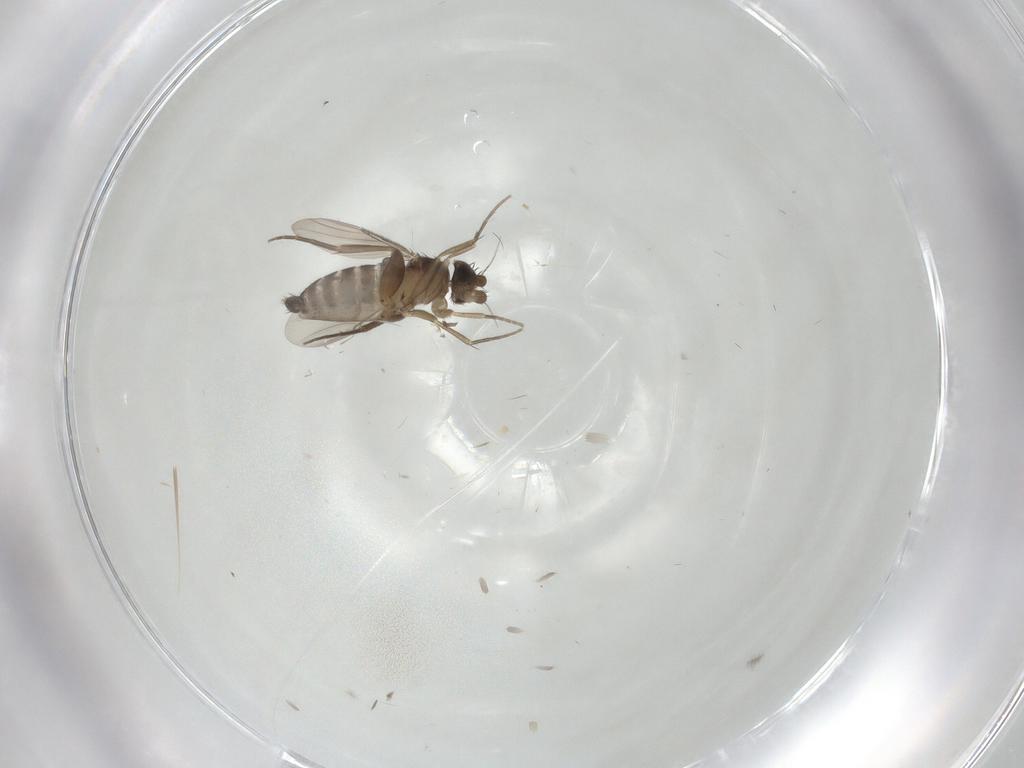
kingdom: Animalia
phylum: Arthropoda
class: Insecta
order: Diptera
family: Phoridae
